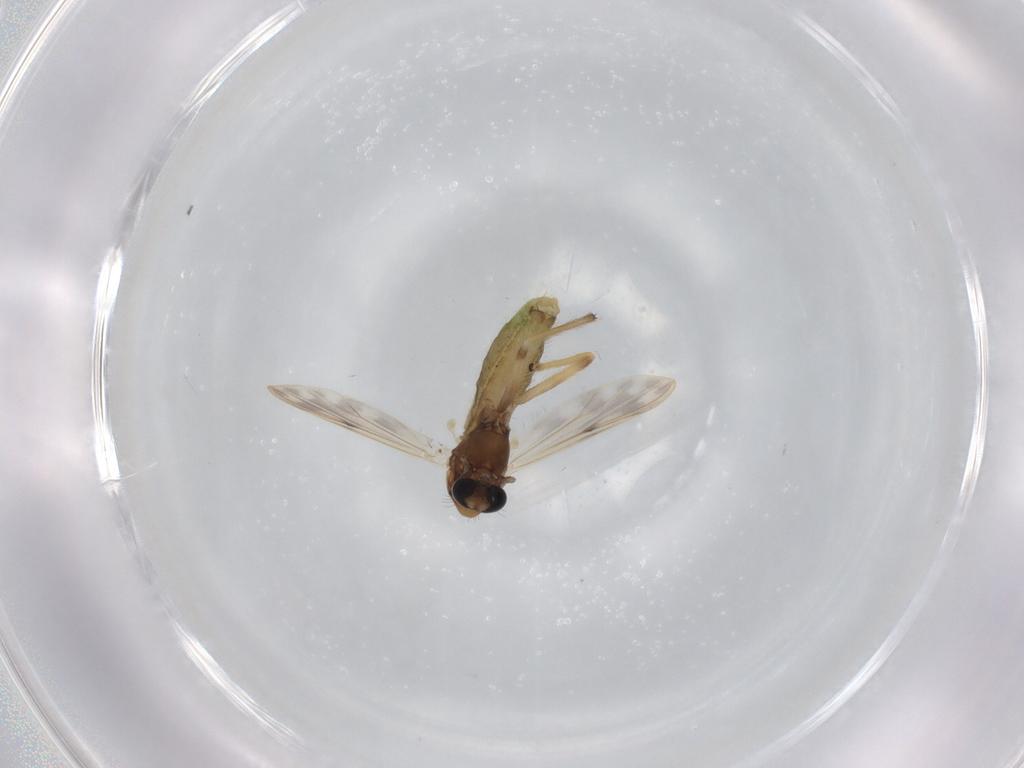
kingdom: Animalia
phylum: Arthropoda
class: Insecta
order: Diptera
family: Chironomidae
